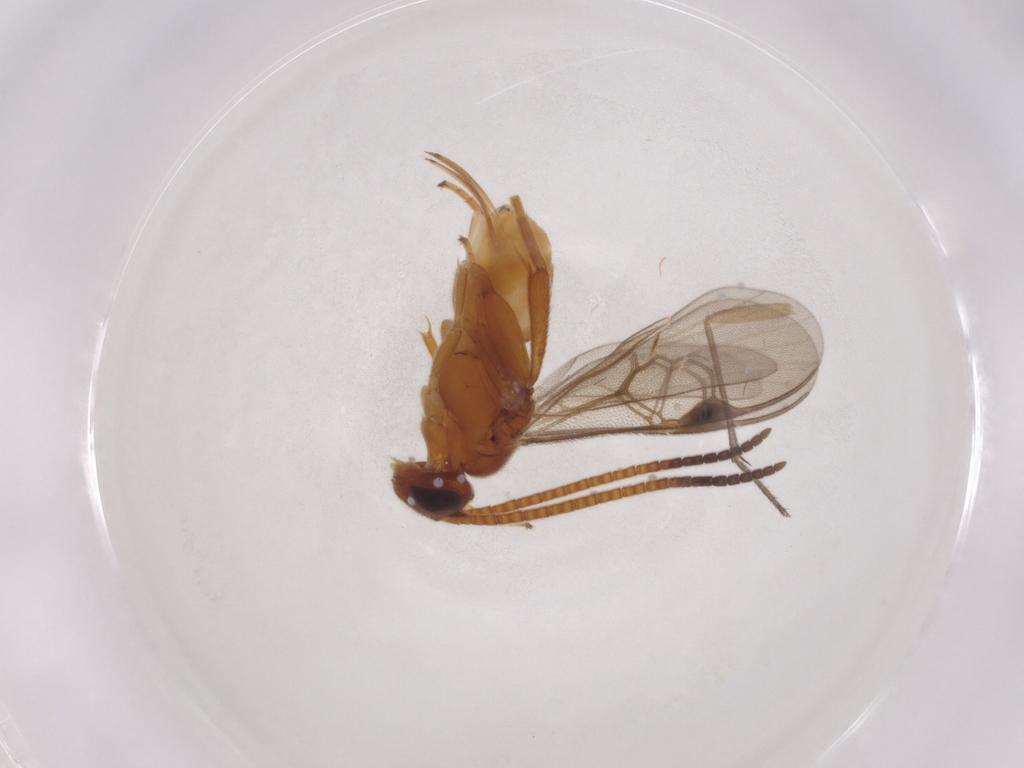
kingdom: Animalia
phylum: Arthropoda
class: Insecta
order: Hymenoptera
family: Braconidae
